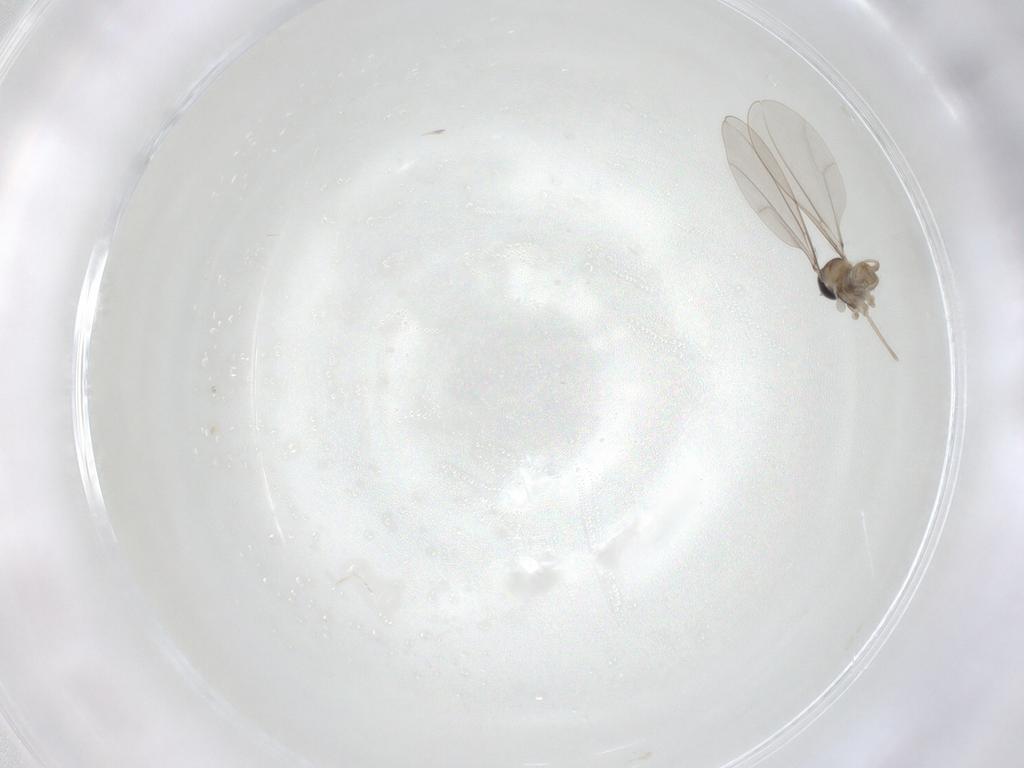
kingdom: Animalia
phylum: Arthropoda
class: Insecta
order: Diptera
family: Cecidomyiidae
